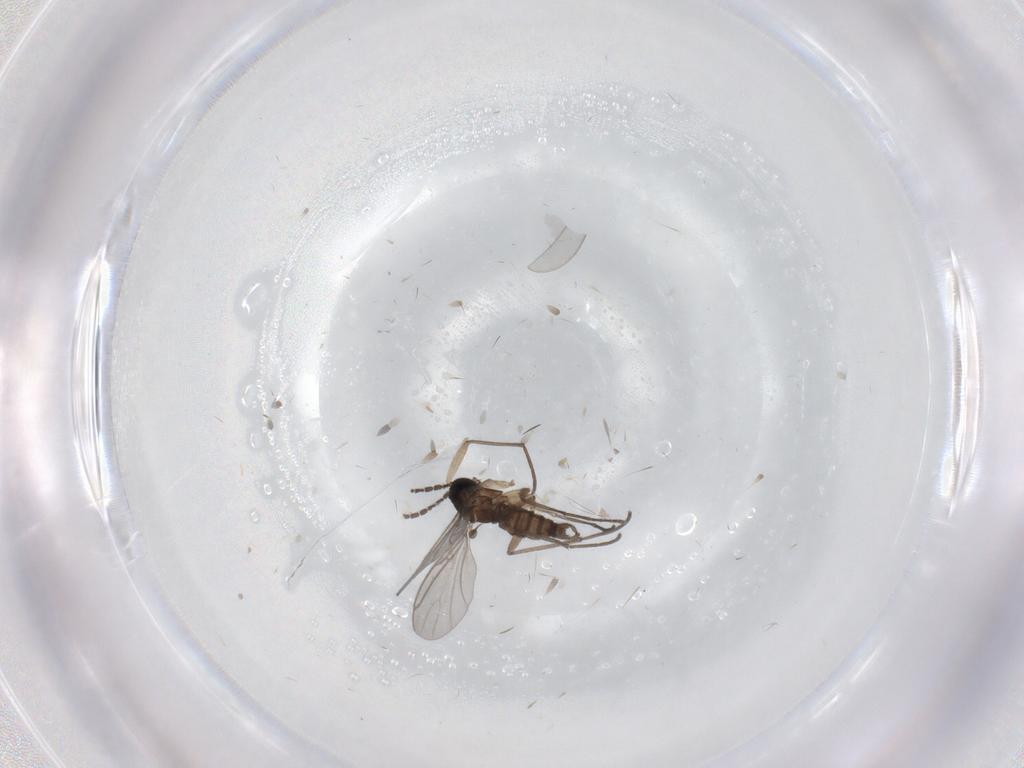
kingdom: Animalia
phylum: Arthropoda
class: Insecta
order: Diptera
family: Sciaridae
